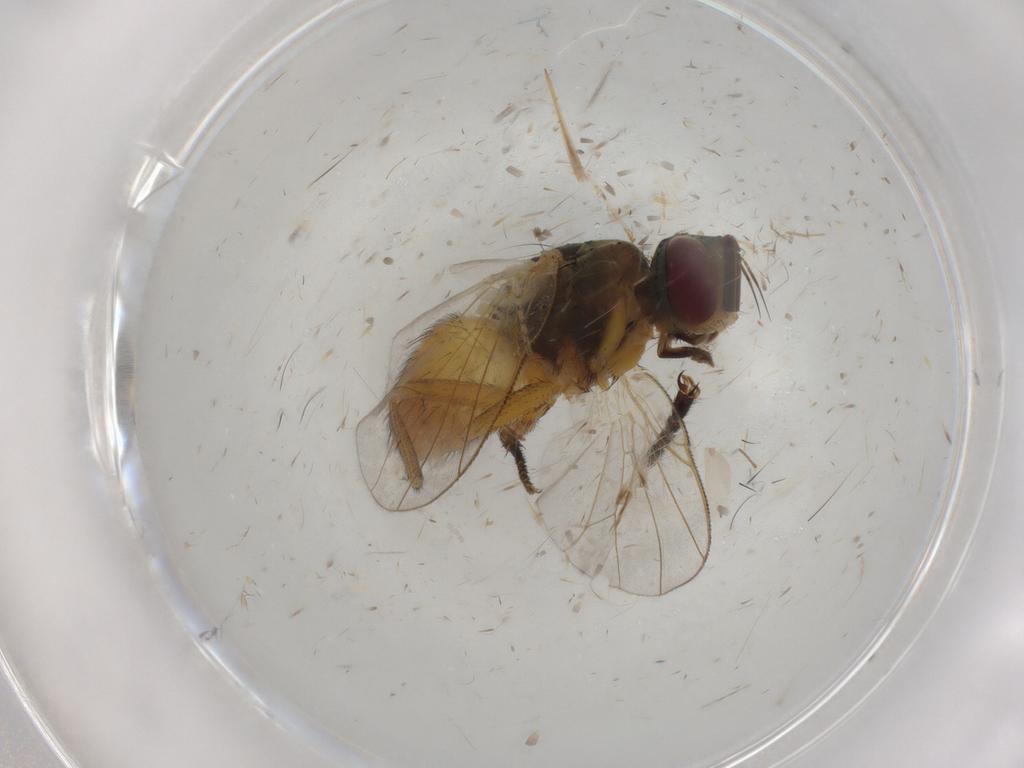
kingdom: Animalia
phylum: Arthropoda
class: Insecta
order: Diptera
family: Muscidae
